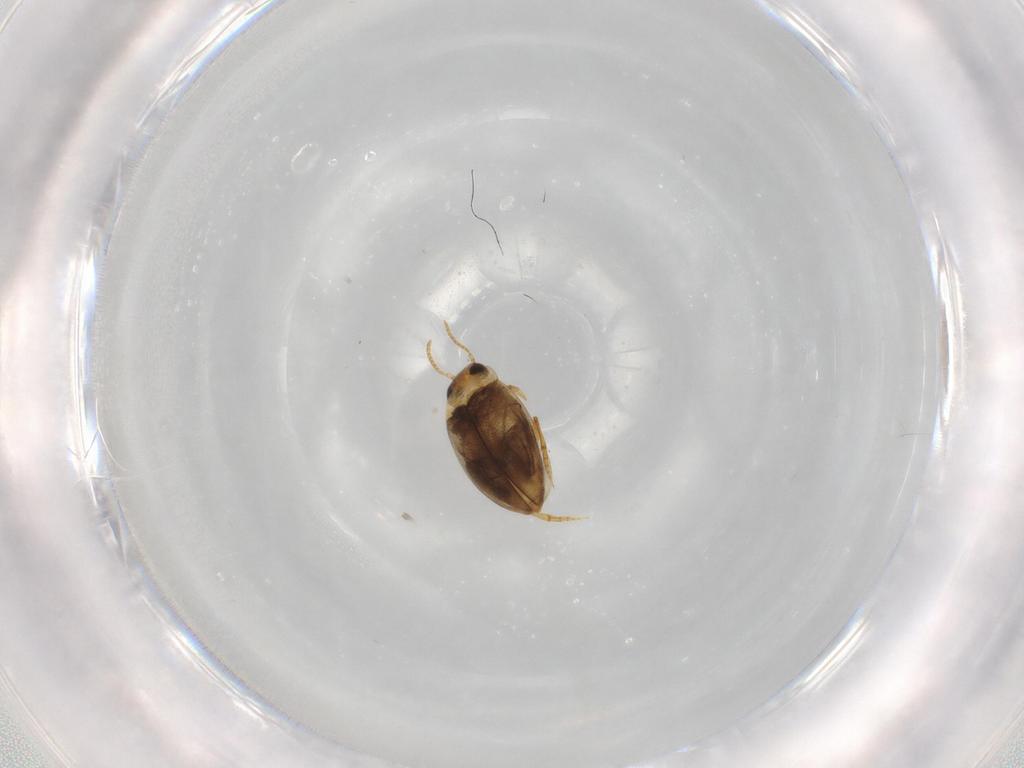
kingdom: Animalia
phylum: Arthropoda
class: Insecta
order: Coleoptera
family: Dytiscidae
